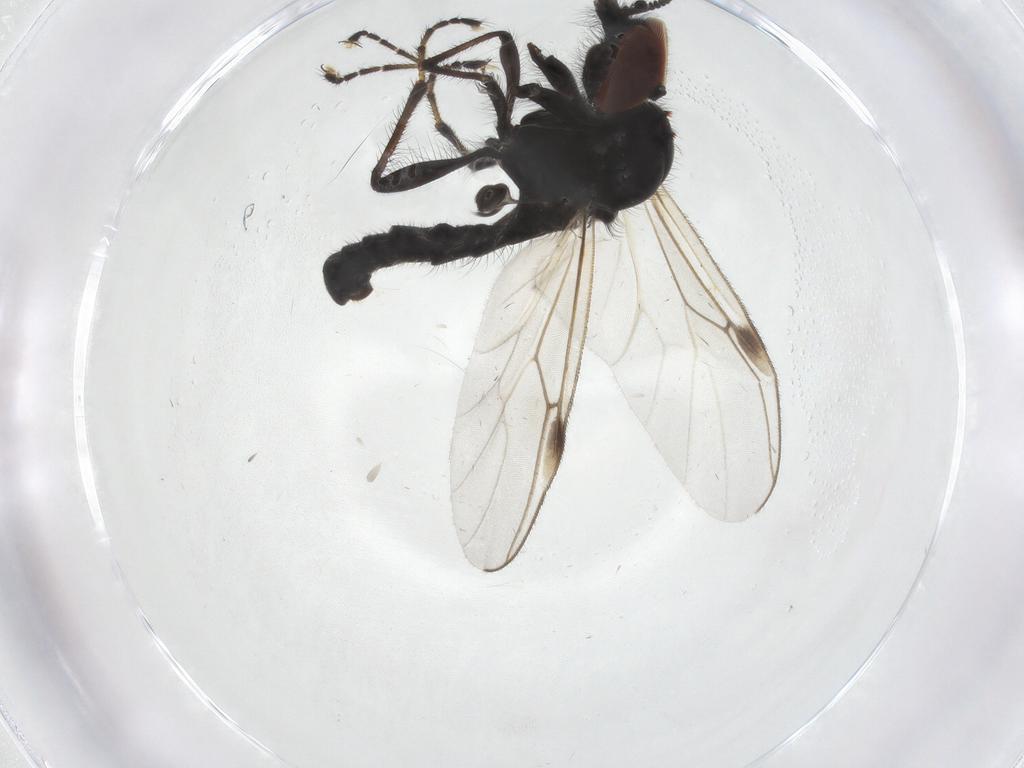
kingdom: Animalia
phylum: Arthropoda
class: Insecta
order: Diptera
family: Bibionidae
